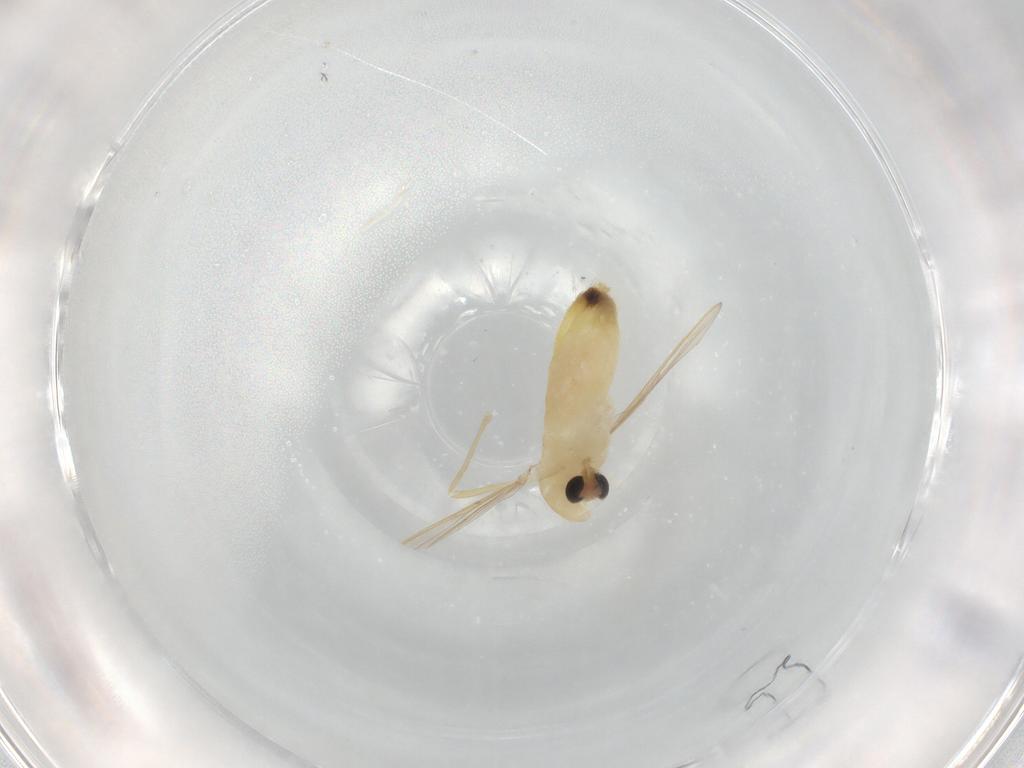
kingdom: Animalia
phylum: Arthropoda
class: Insecta
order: Diptera
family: Chironomidae
